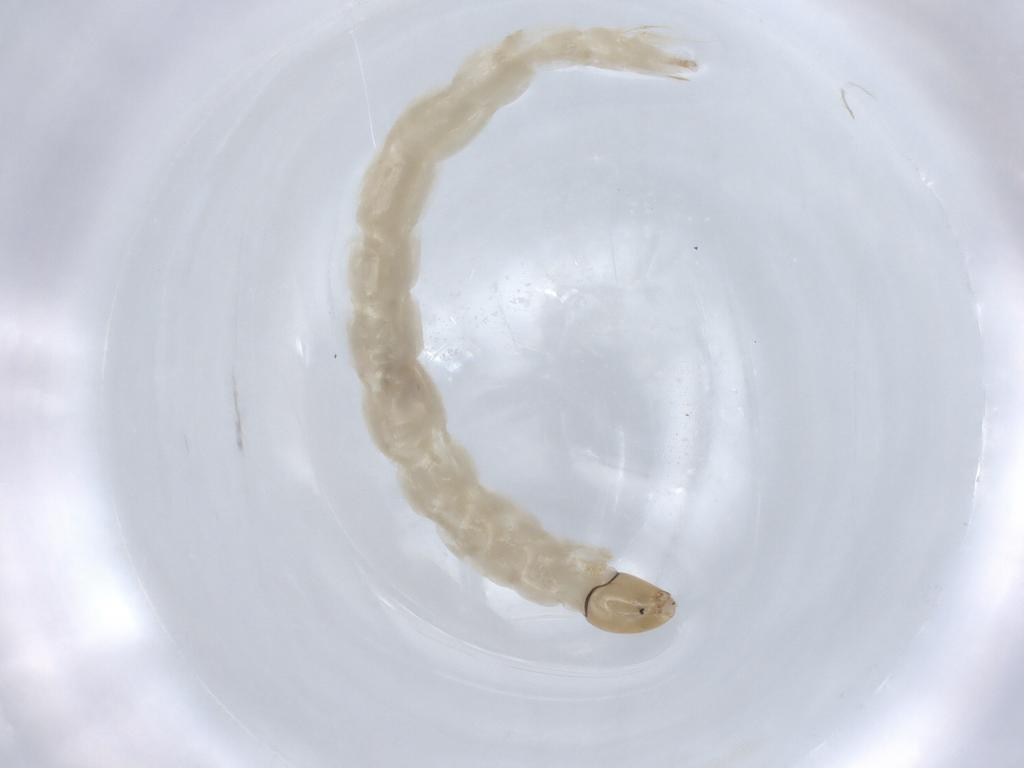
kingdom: Animalia
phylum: Arthropoda
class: Insecta
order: Diptera
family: Chironomidae
